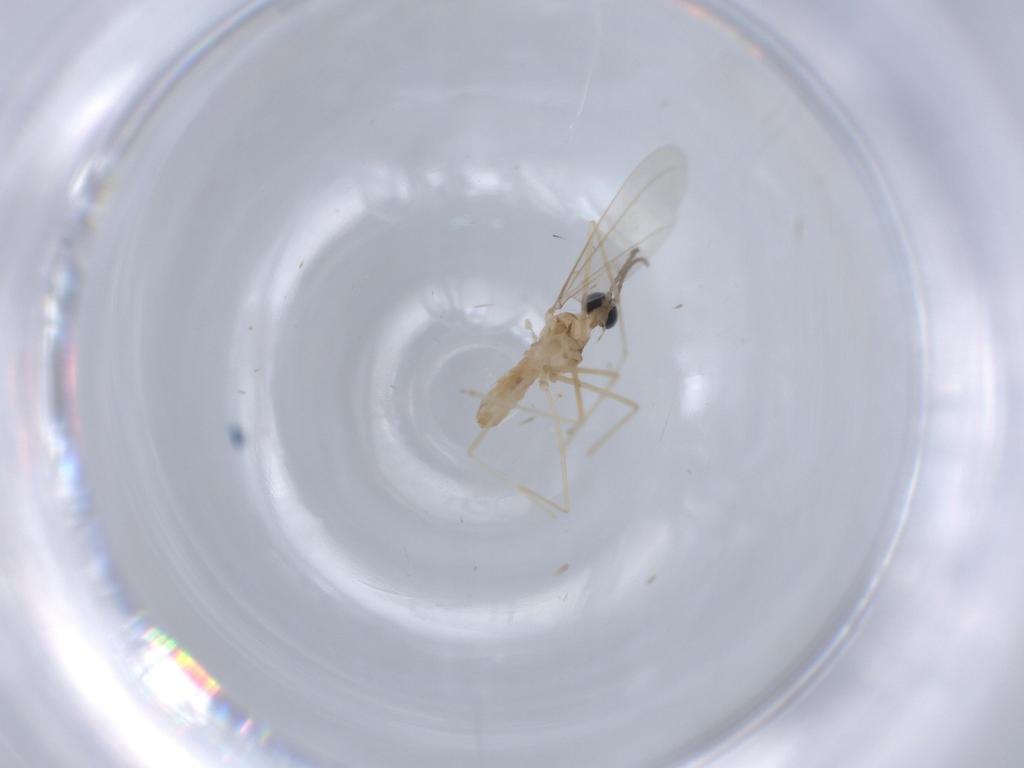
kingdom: Animalia
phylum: Arthropoda
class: Insecta
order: Diptera
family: Cecidomyiidae
